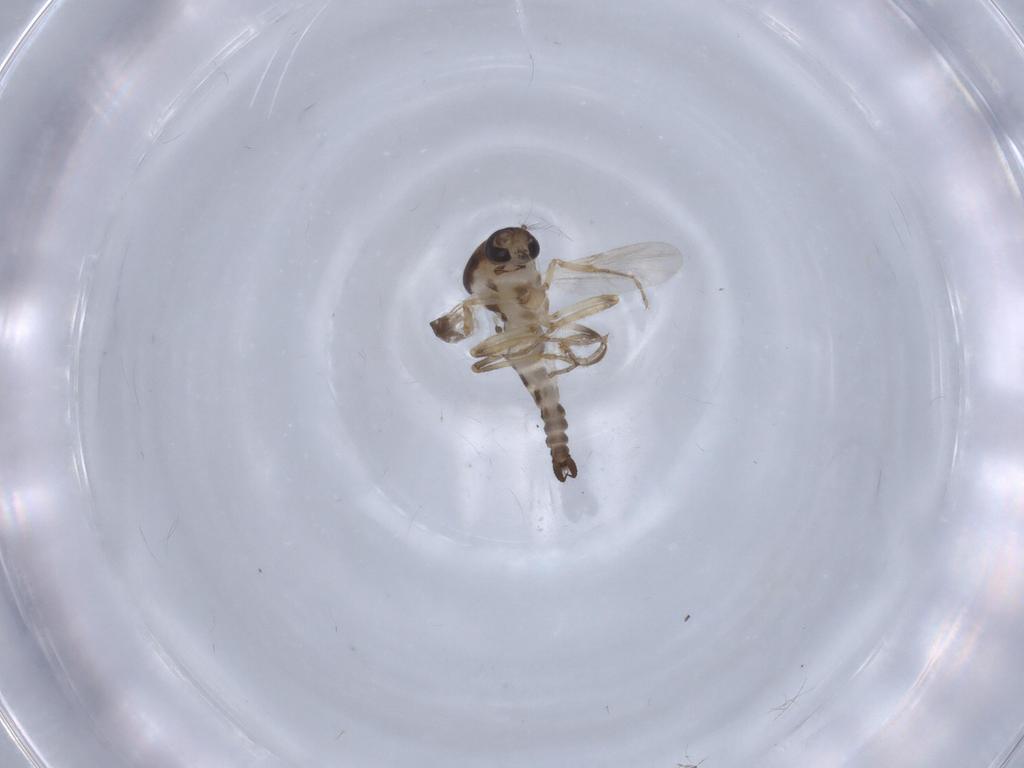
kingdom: Animalia
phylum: Arthropoda
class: Insecta
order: Diptera
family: Ceratopogonidae
